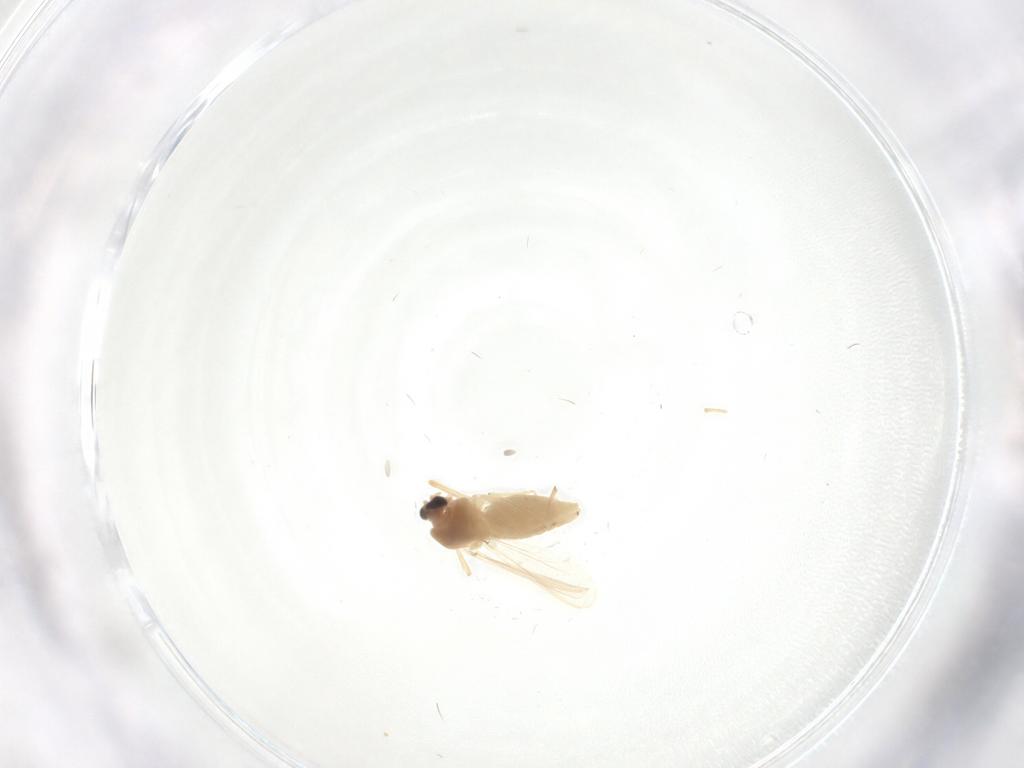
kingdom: Animalia
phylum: Arthropoda
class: Insecta
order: Diptera
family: Chironomidae
